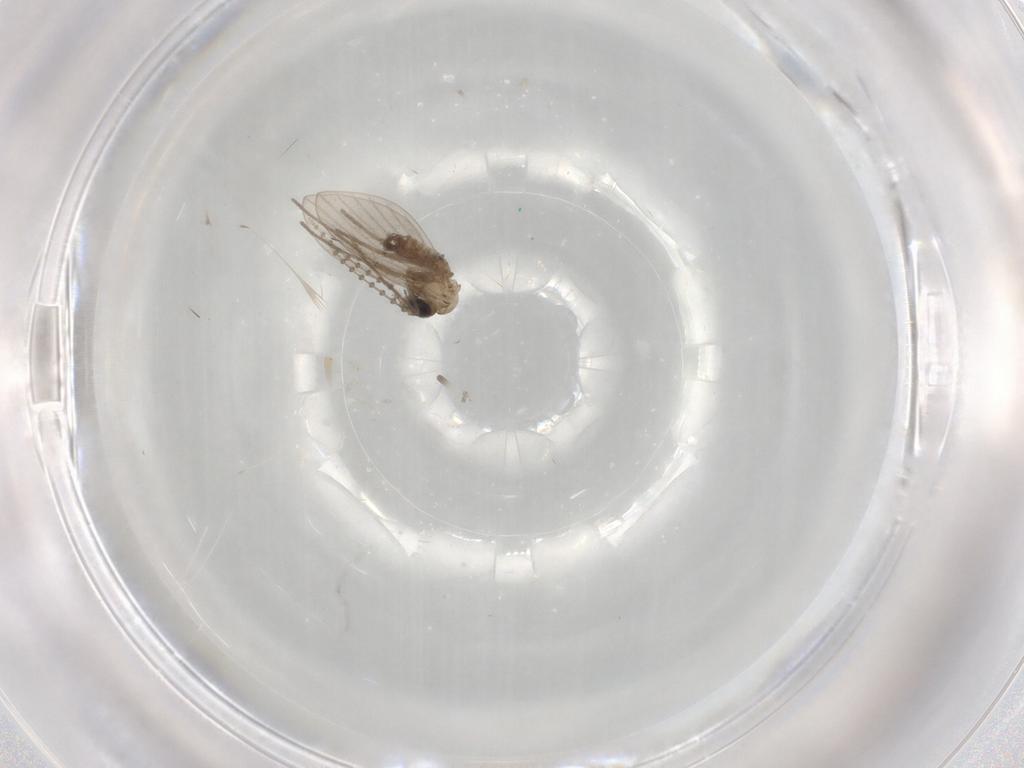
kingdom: Animalia
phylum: Arthropoda
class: Insecta
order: Diptera
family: Psychodidae
